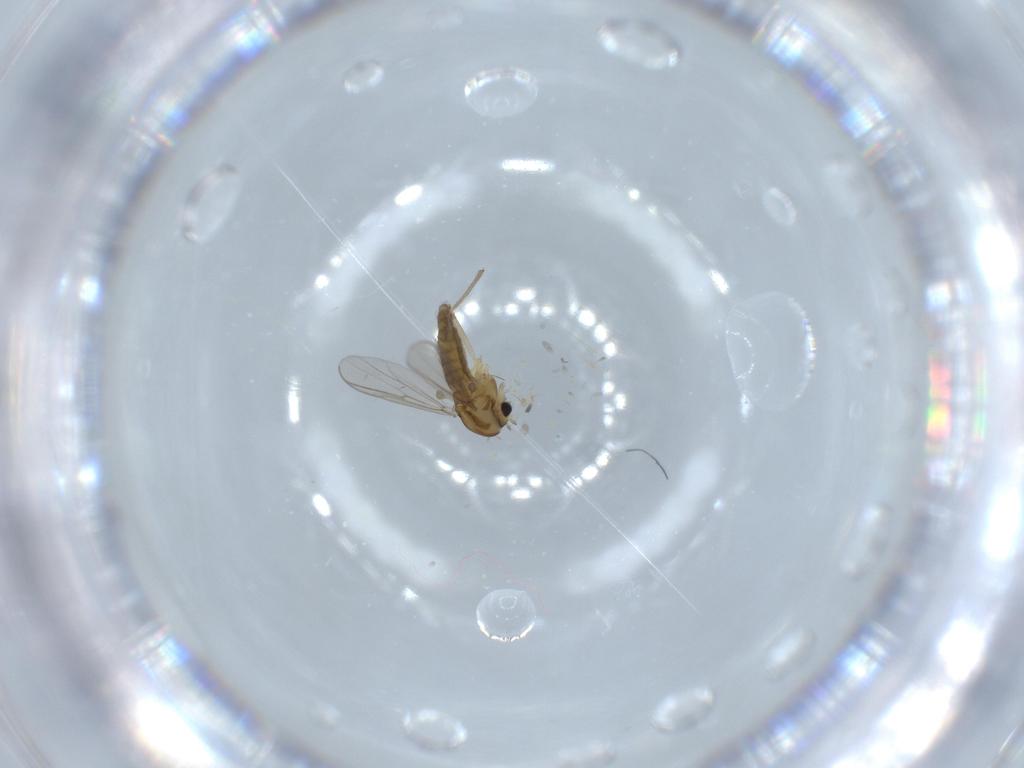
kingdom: Animalia
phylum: Arthropoda
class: Insecta
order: Diptera
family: Chironomidae
